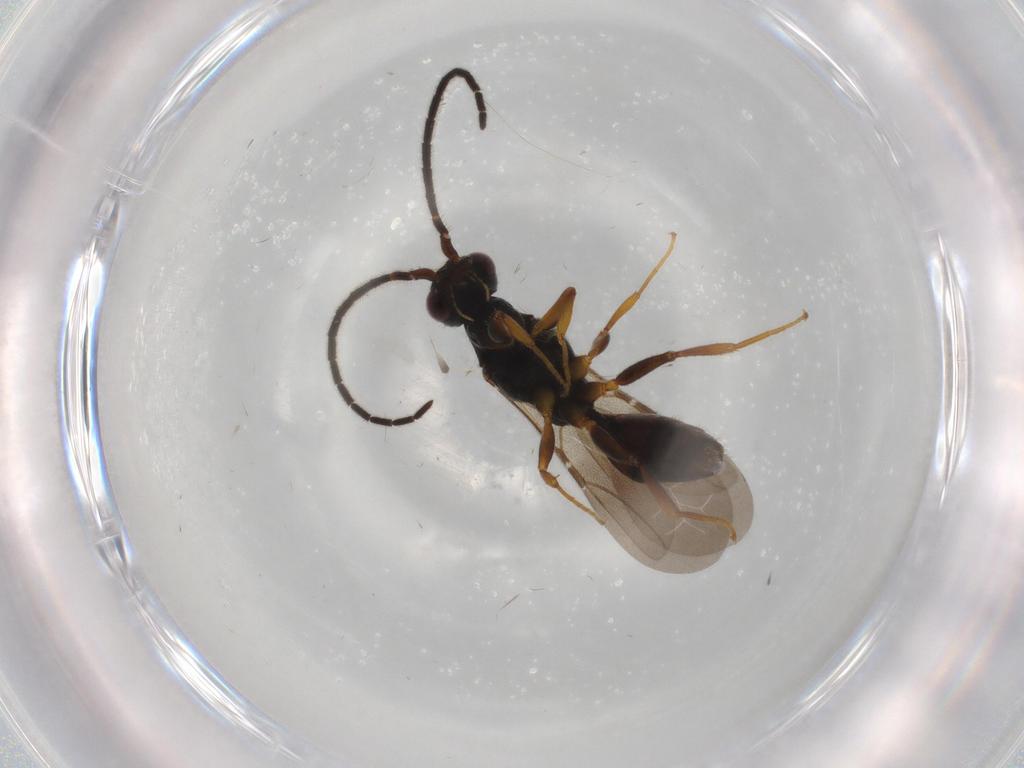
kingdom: Animalia
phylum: Arthropoda
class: Insecta
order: Hymenoptera
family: Bethylidae
